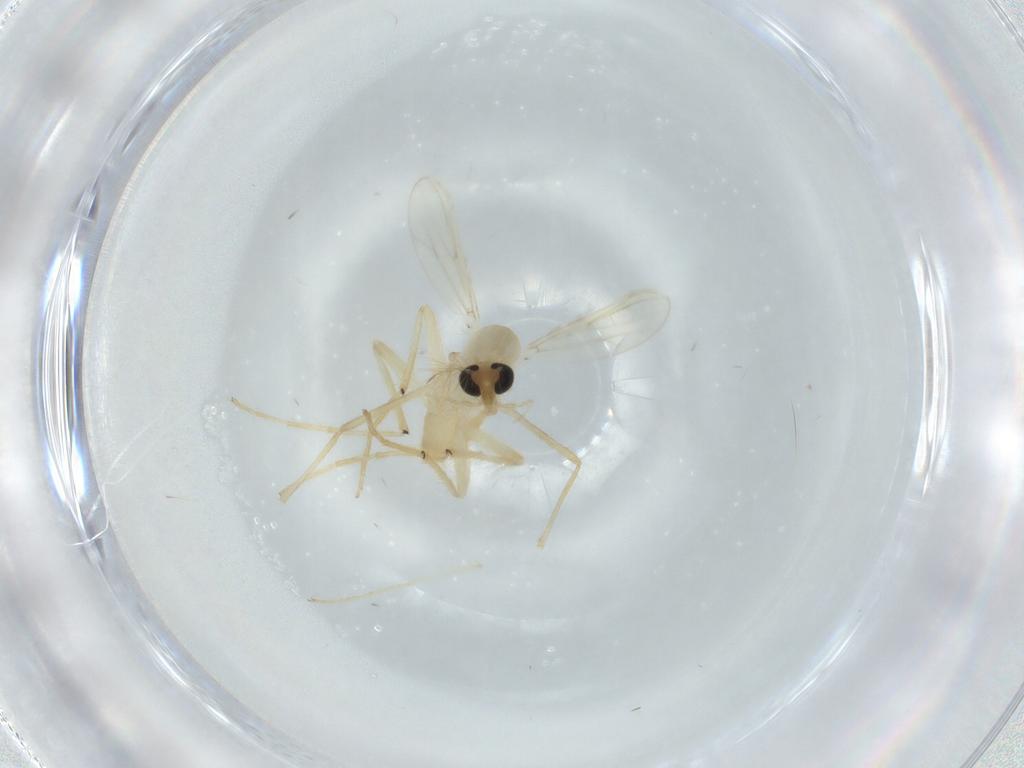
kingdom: Animalia
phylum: Arthropoda
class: Insecta
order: Diptera
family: Chironomidae
